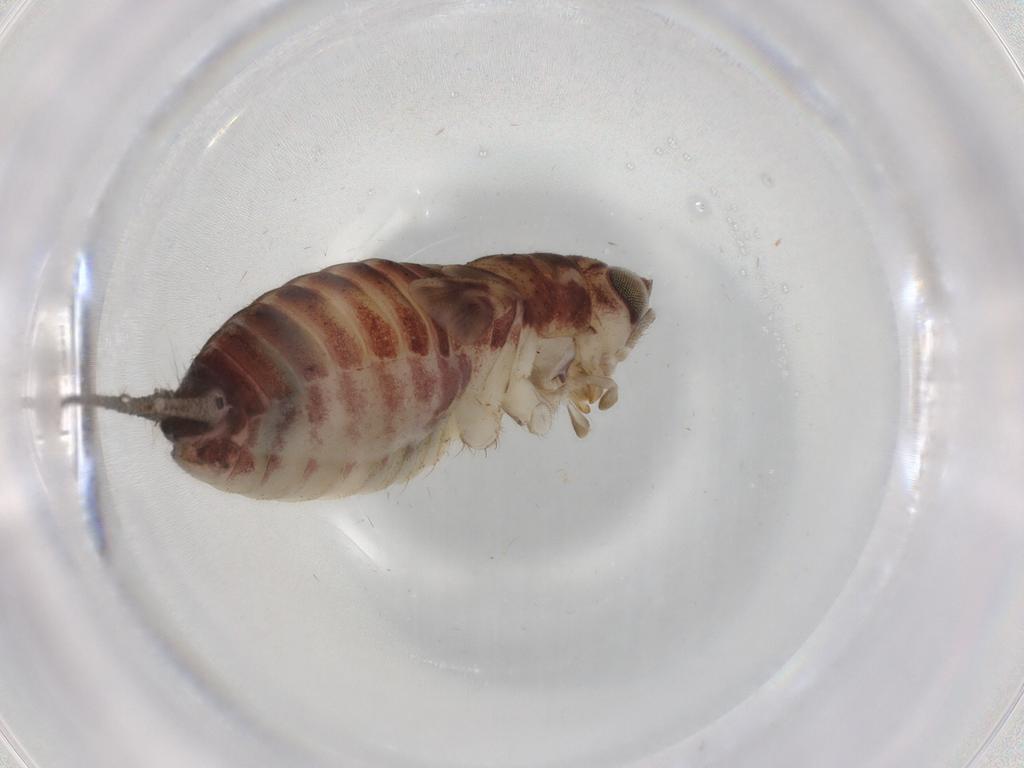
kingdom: Animalia
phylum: Arthropoda
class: Insecta
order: Orthoptera
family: Trigonidiidae
